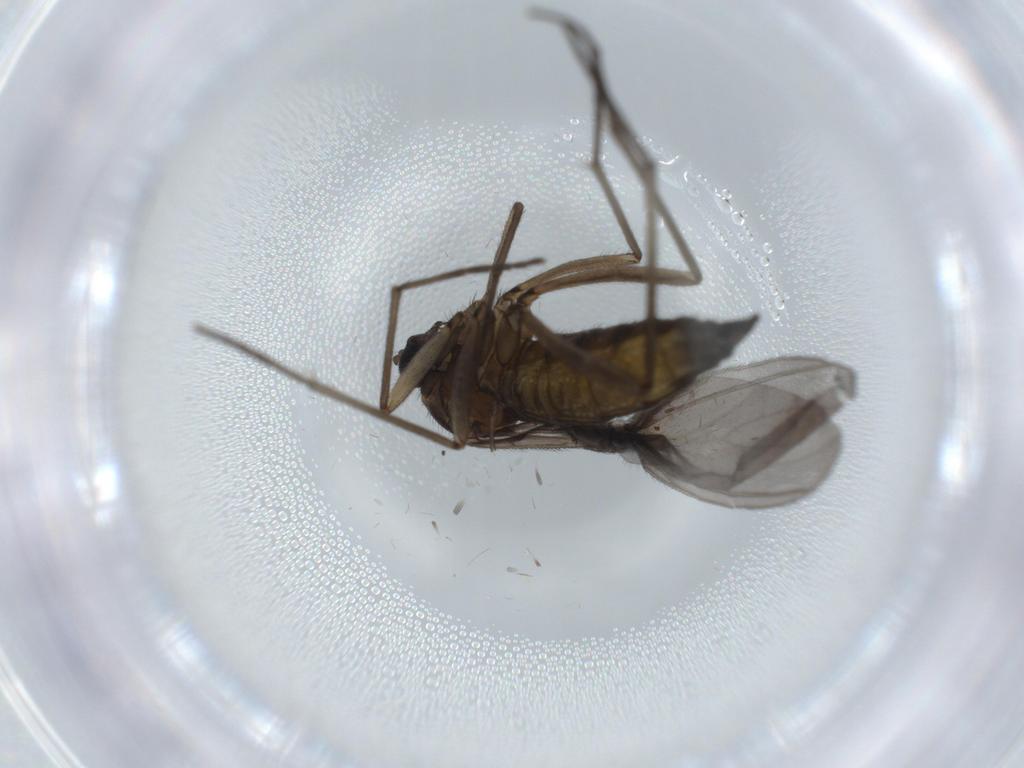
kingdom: Animalia
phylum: Arthropoda
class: Insecta
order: Diptera
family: Sciaridae
